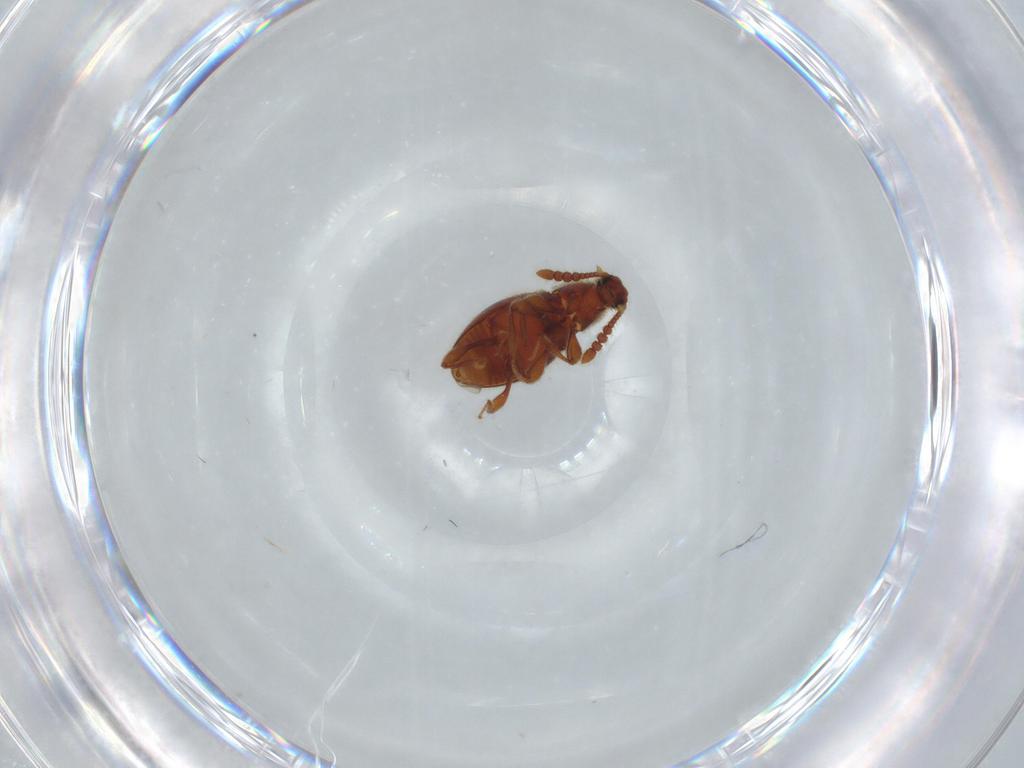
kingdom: Animalia
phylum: Arthropoda
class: Insecta
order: Coleoptera
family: Staphylinidae
